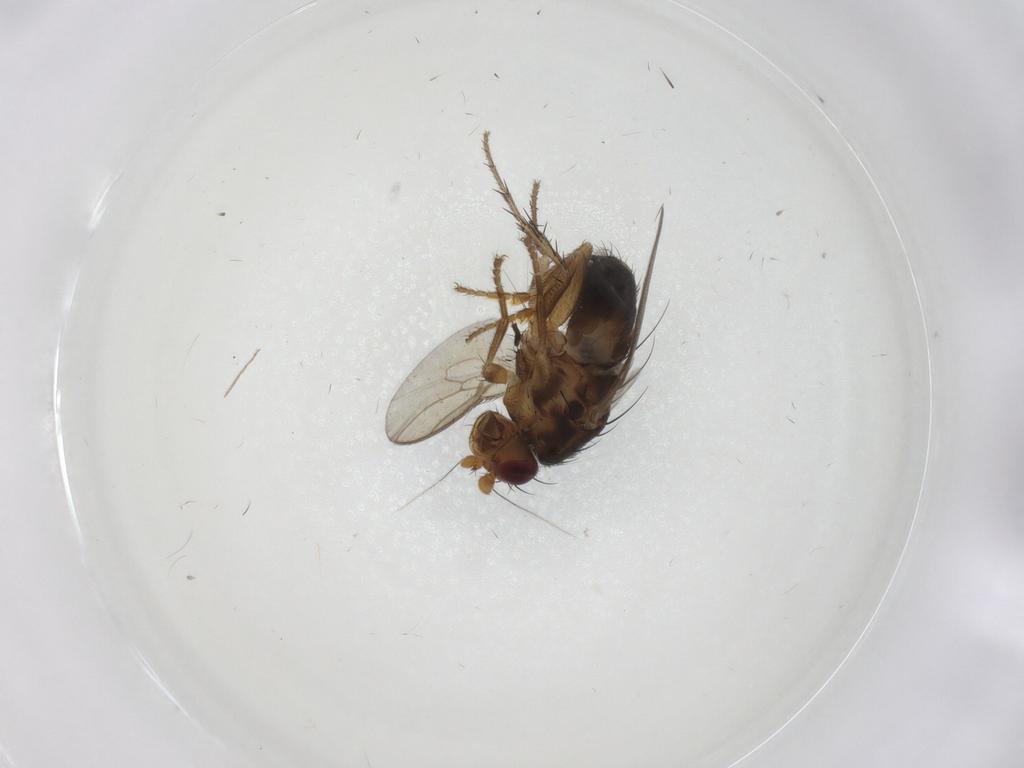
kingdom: Animalia
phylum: Arthropoda
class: Insecta
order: Diptera
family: Sphaeroceridae
